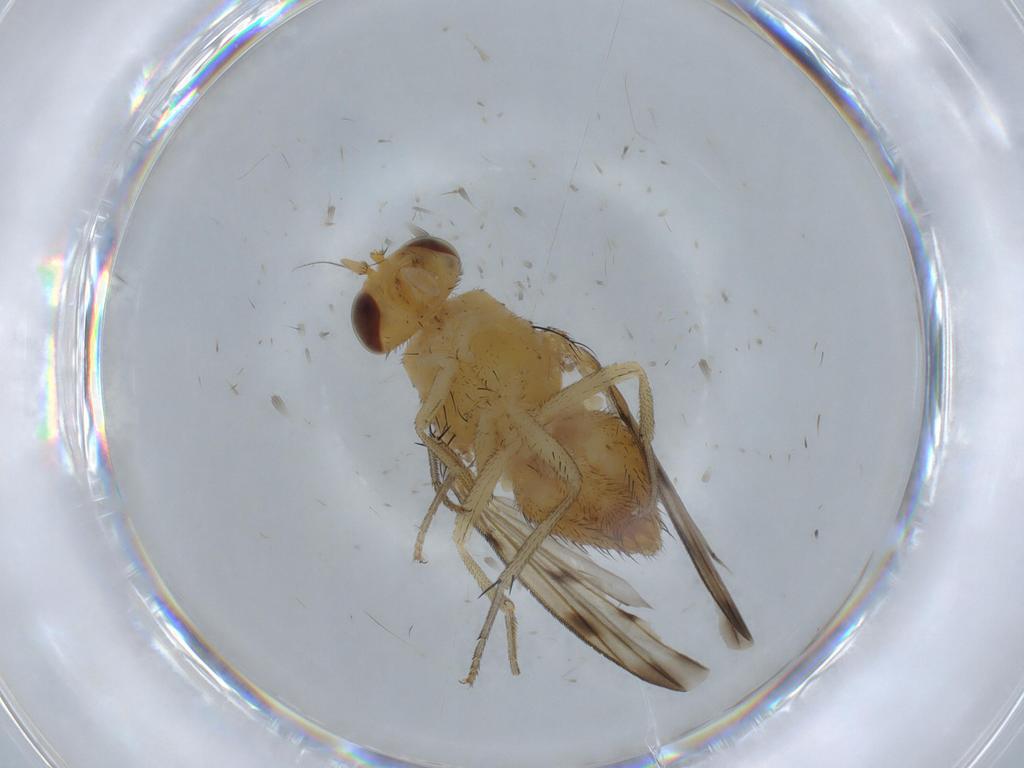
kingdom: Animalia
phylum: Arthropoda
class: Insecta
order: Diptera
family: Lauxaniidae
